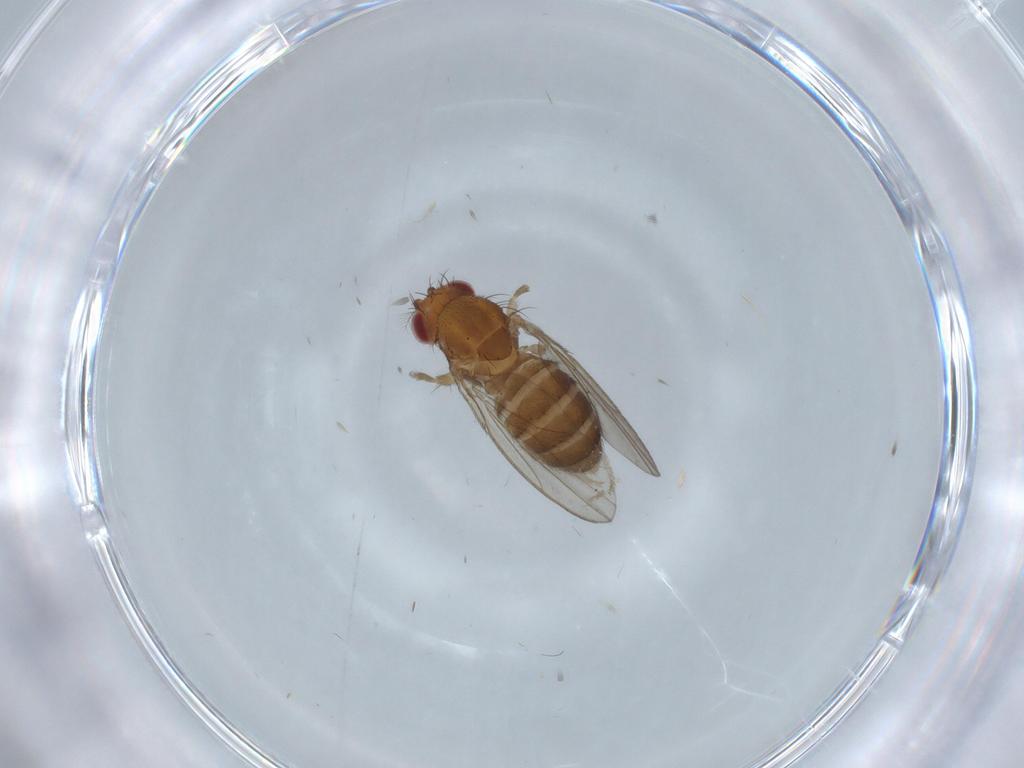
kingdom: Animalia
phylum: Arthropoda
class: Insecta
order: Diptera
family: Drosophilidae
